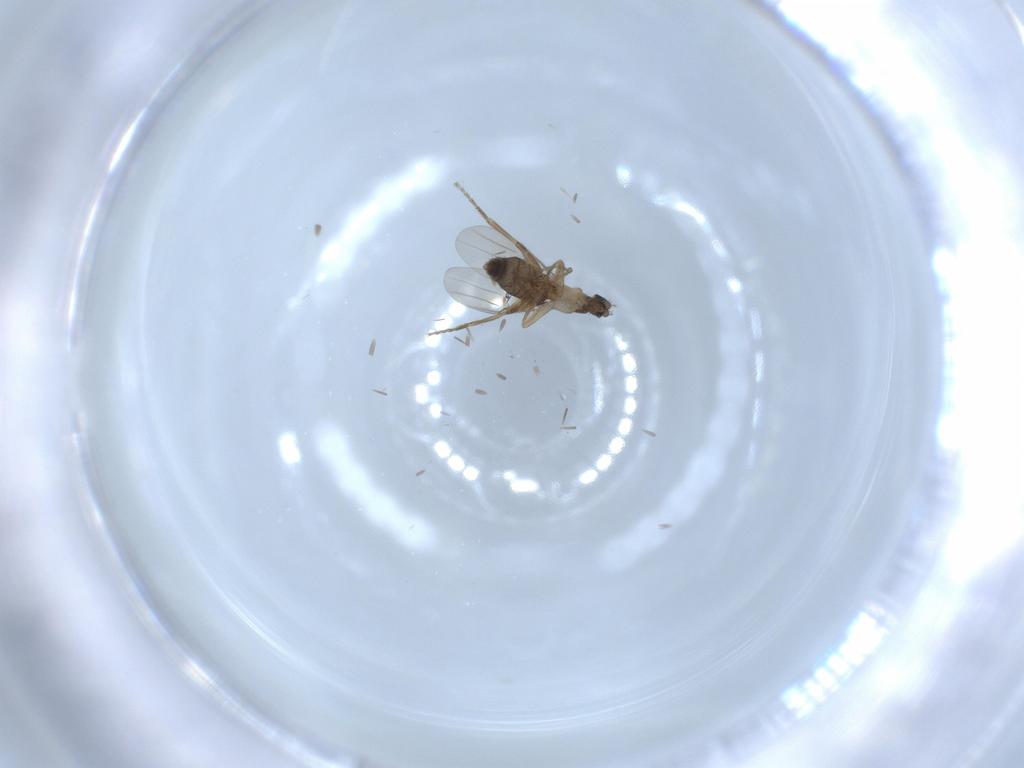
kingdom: Animalia
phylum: Arthropoda
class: Insecta
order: Diptera
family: Phoridae
